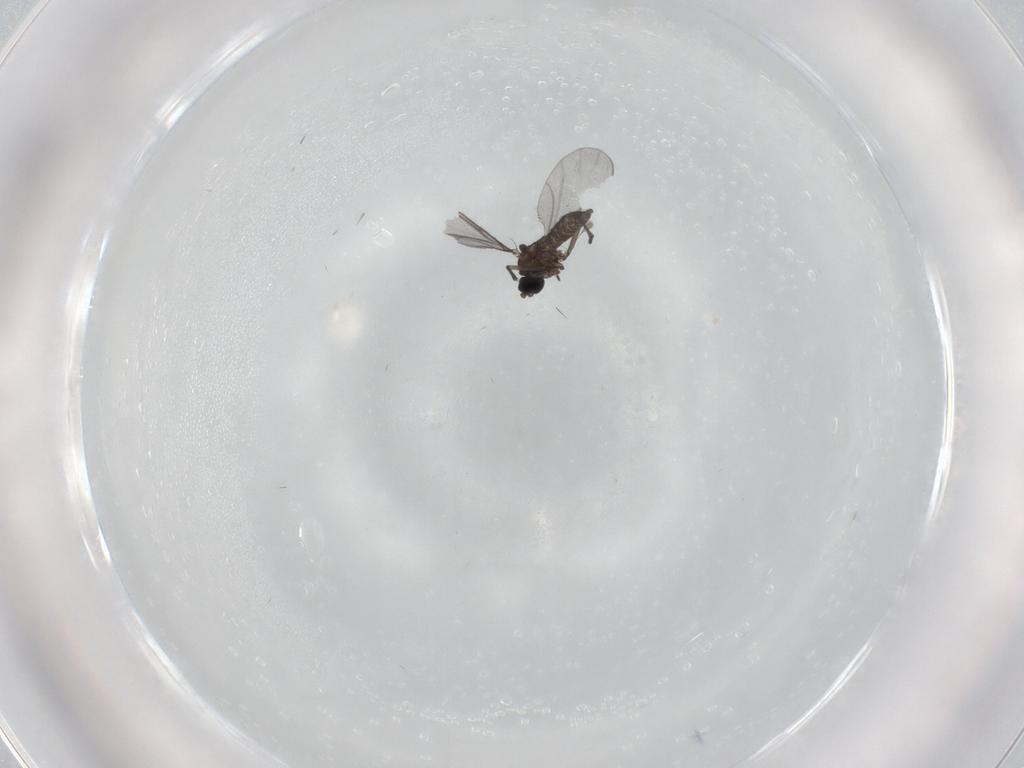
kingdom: Animalia
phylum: Arthropoda
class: Insecta
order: Diptera
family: Sciaridae
